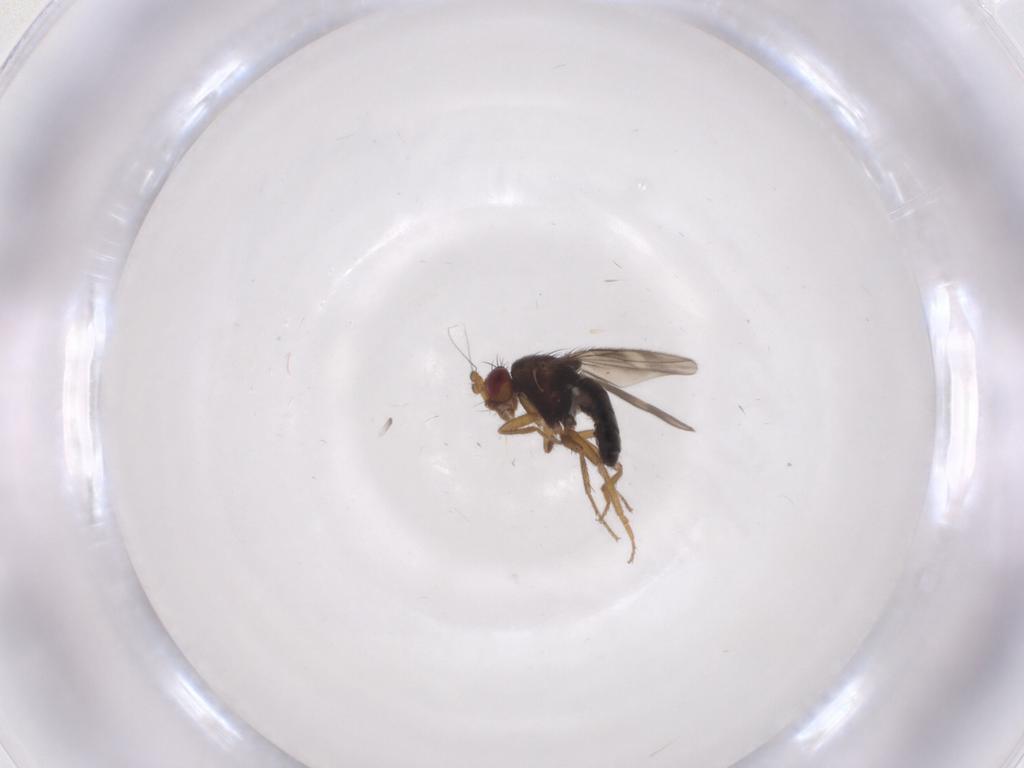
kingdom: Animalia
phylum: Arthropoda
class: Insecta
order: Diptera
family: Sphaeroceridae
